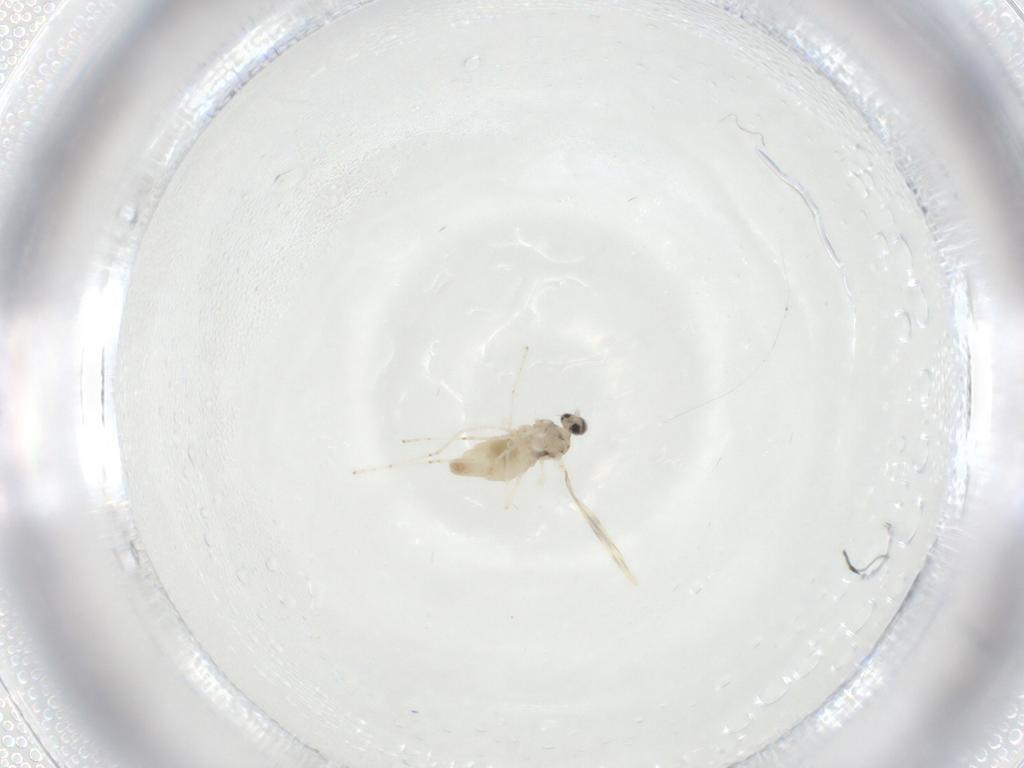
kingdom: Animalia
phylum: Arthropoda
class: Insecta
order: Diptera
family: Cecidomyiidae
